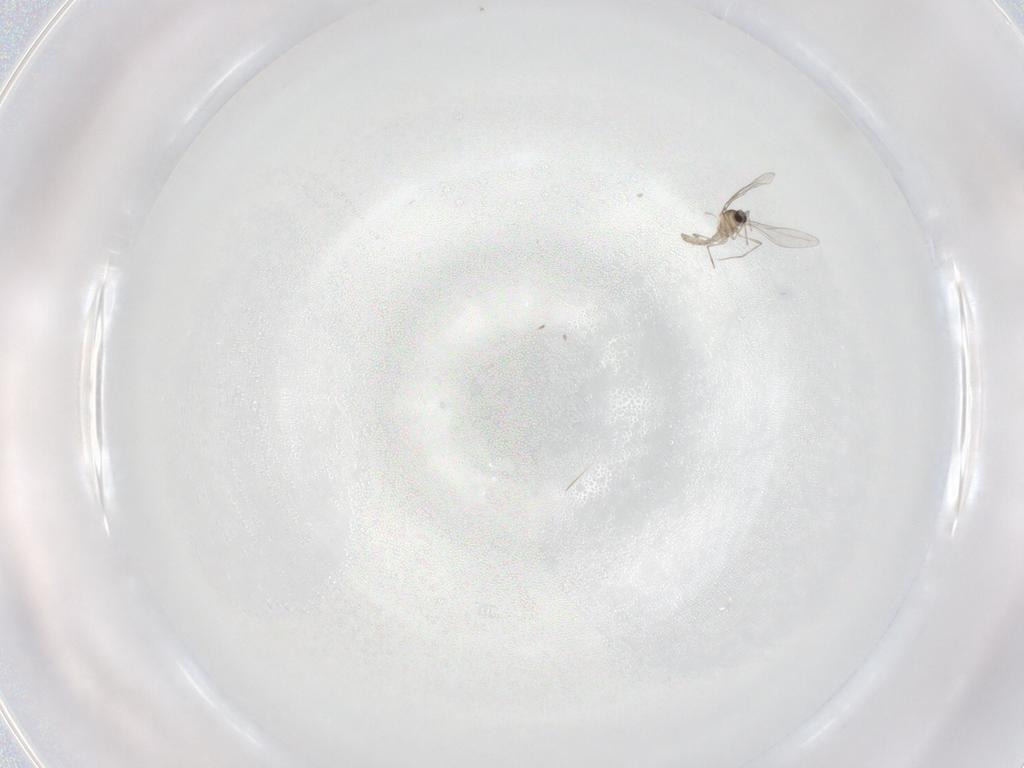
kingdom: Animalia
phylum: Arthropoda
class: Insecta
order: Diptera
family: Cecidomyiidae
